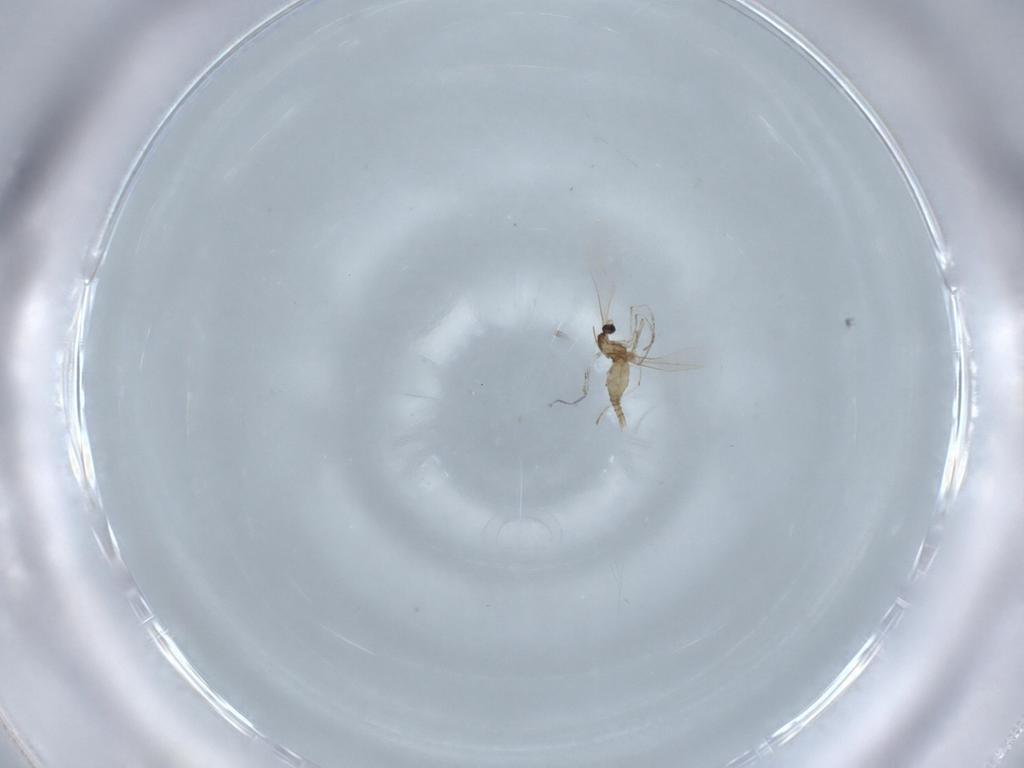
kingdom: Animalia
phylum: Arthropoda
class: Insecta
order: Diptera
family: Cecidomyiidae
